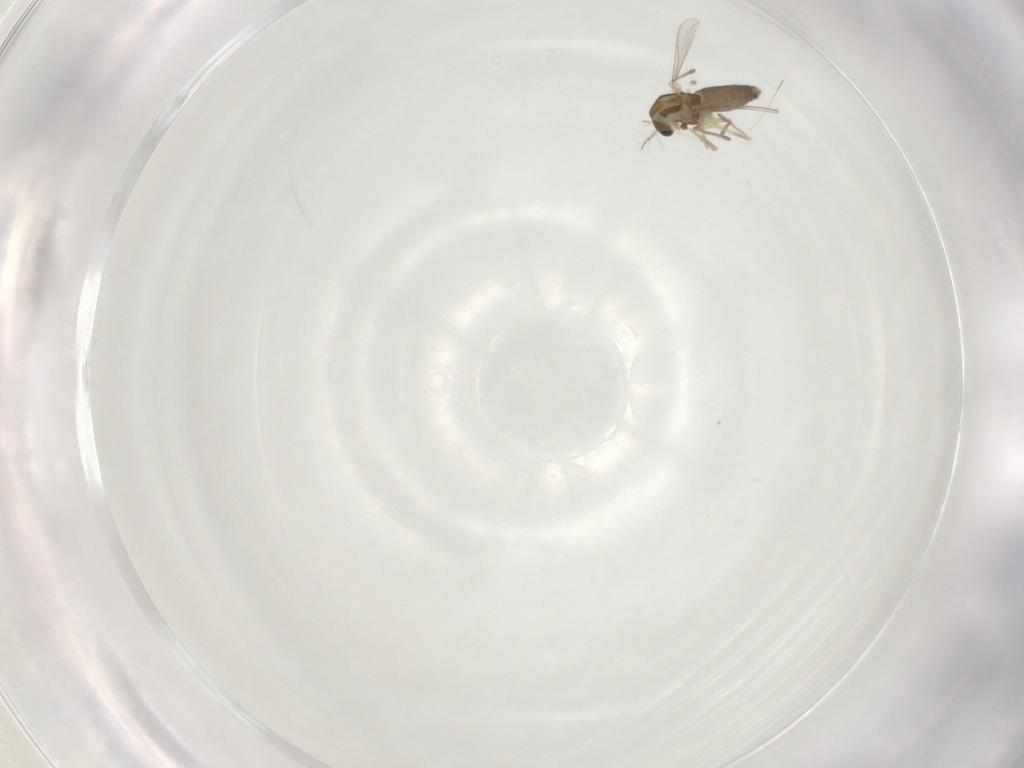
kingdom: Animalia
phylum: Arthropoda
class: Insecta
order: Diptera
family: Chironomidae
